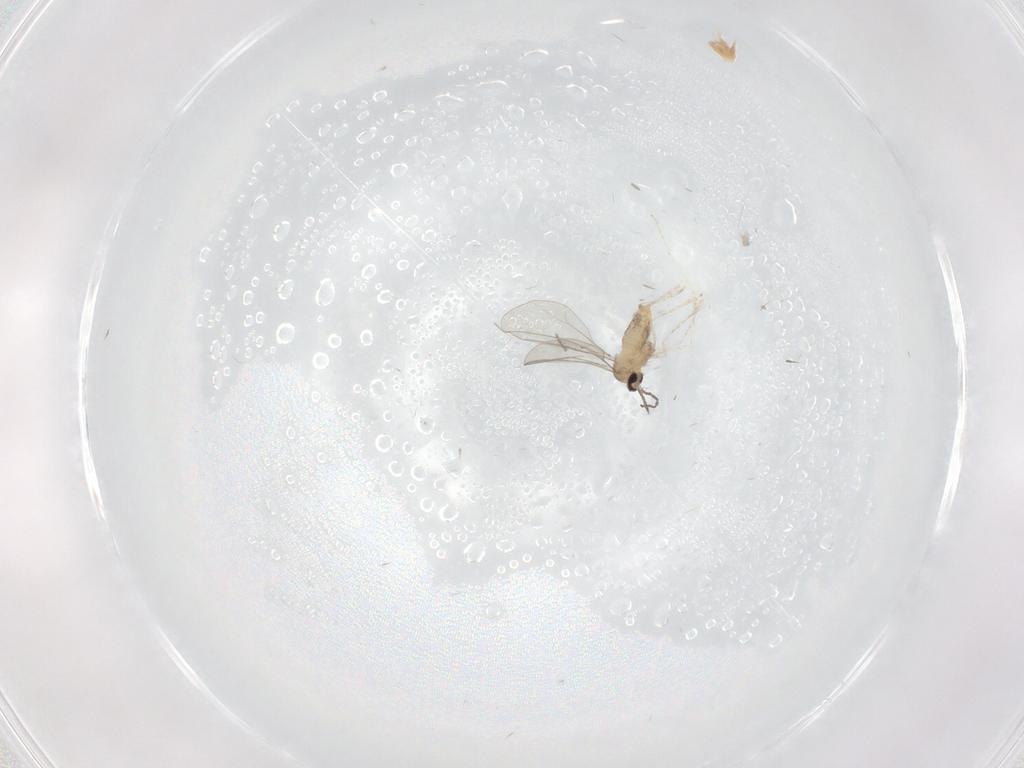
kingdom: Animalia
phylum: Arthropoda
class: Insecta
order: Diptera
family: Cecidomyiidae
